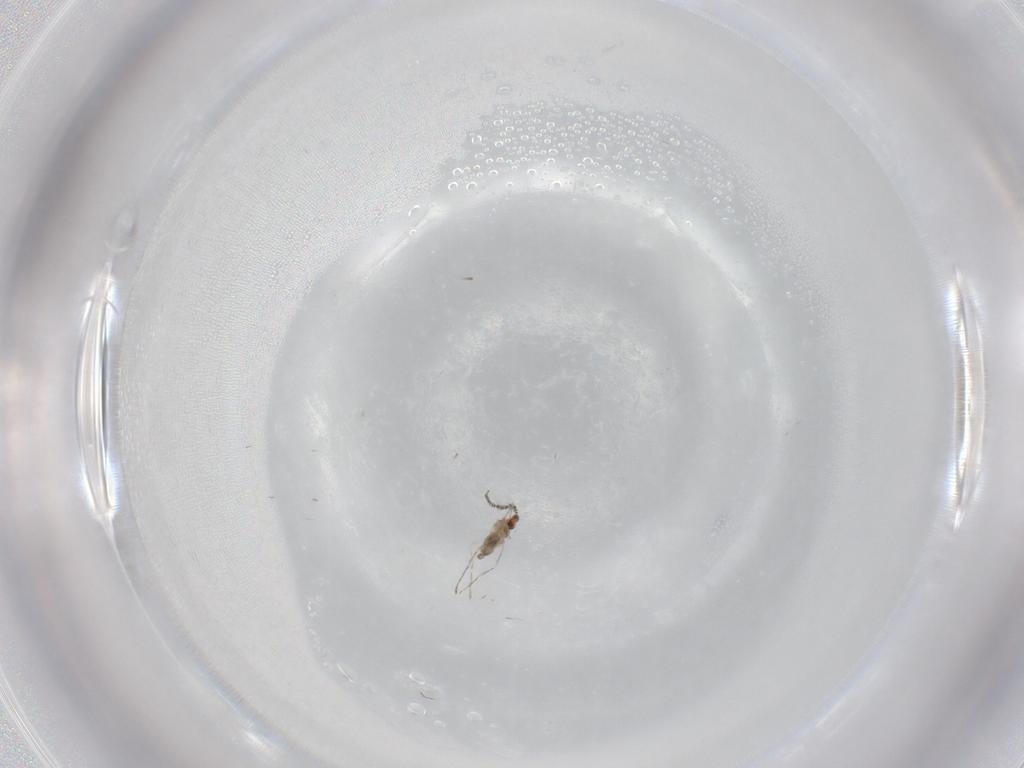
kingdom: Animalia
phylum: Arthropoda
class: Insecta
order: Diptera
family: Cecidomyiidae
